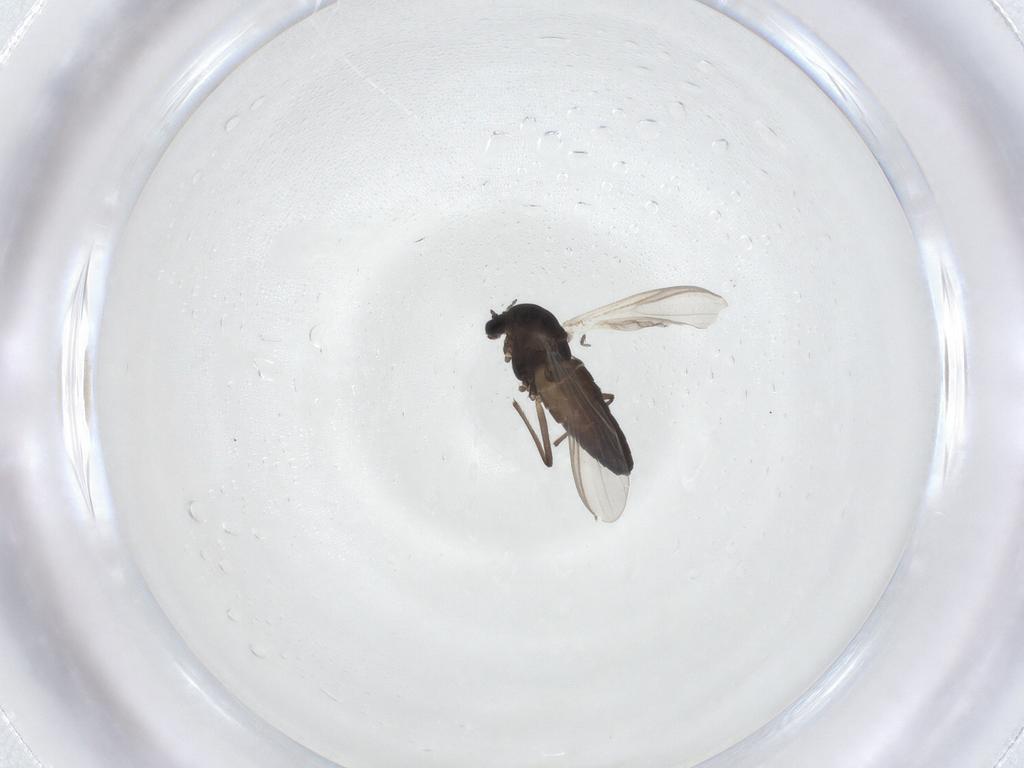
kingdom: Animalia
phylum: Arthropoda
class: Insecta
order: Diptera
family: Chironomidae
